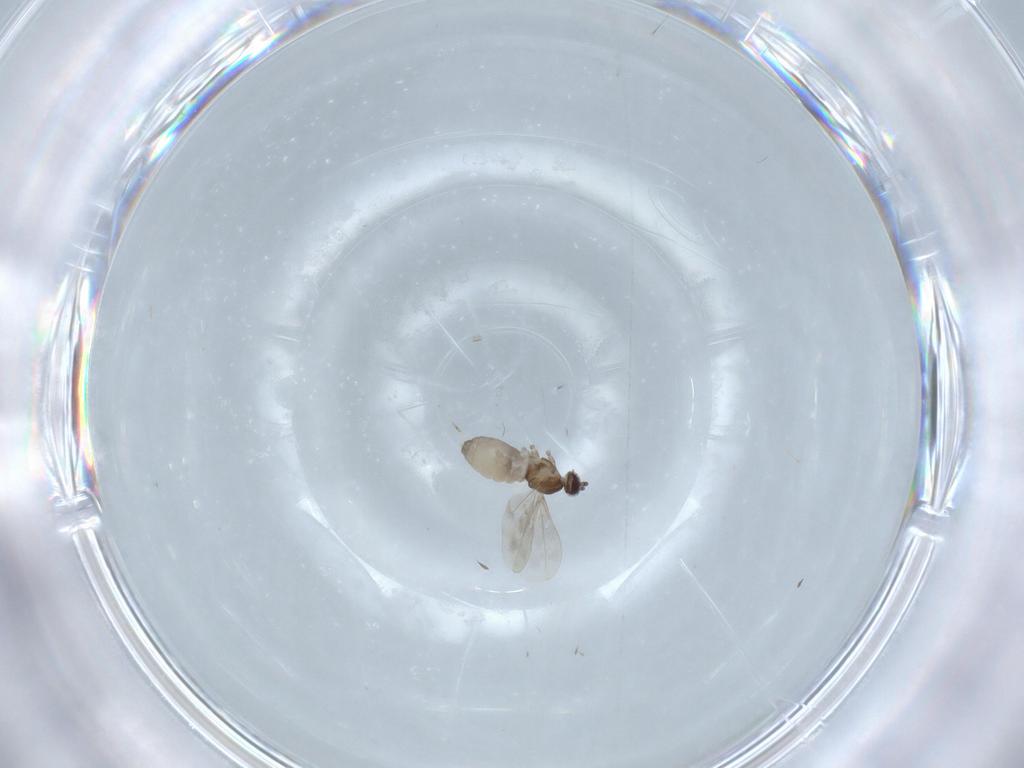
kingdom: Animalia
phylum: Arthropoda
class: Insecta
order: Diptera
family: Cecidomyiidae
